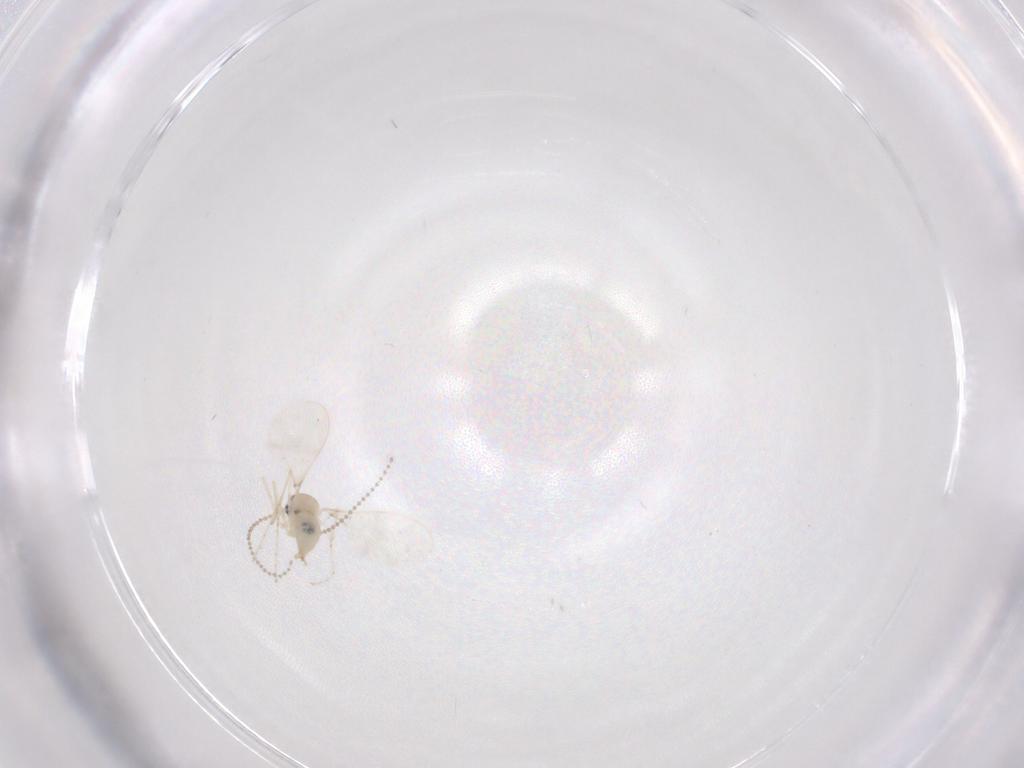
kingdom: Animalia
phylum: Arthropoda
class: Insecta
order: Diptera
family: Cecidomyiidae
